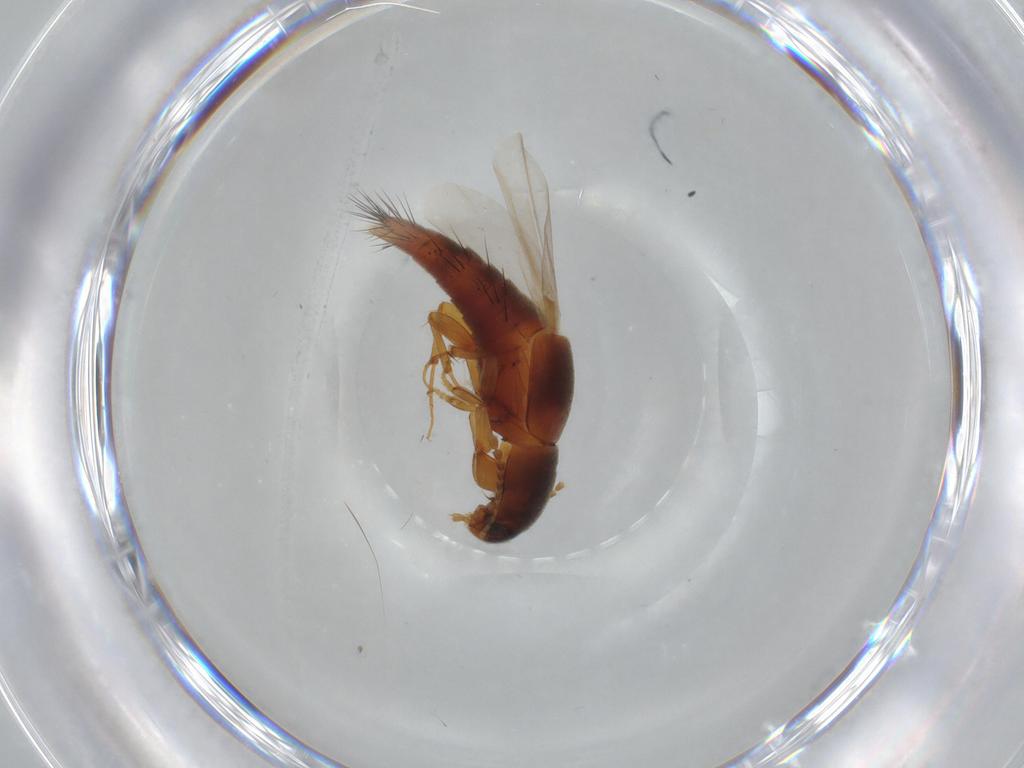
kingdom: Animalia
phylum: Arthropoda
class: Insecta
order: Coleoptera
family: Staphylinidae
